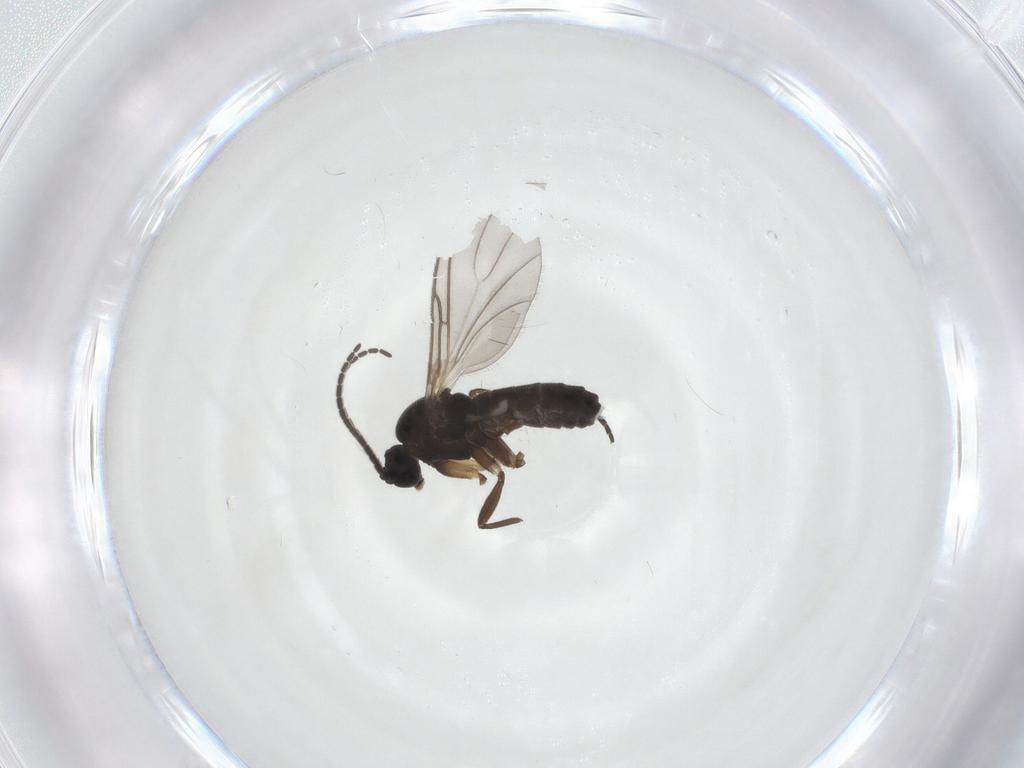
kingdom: Animalia
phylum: Arthropoda
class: Insecta
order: Diptera
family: Sciaridae
